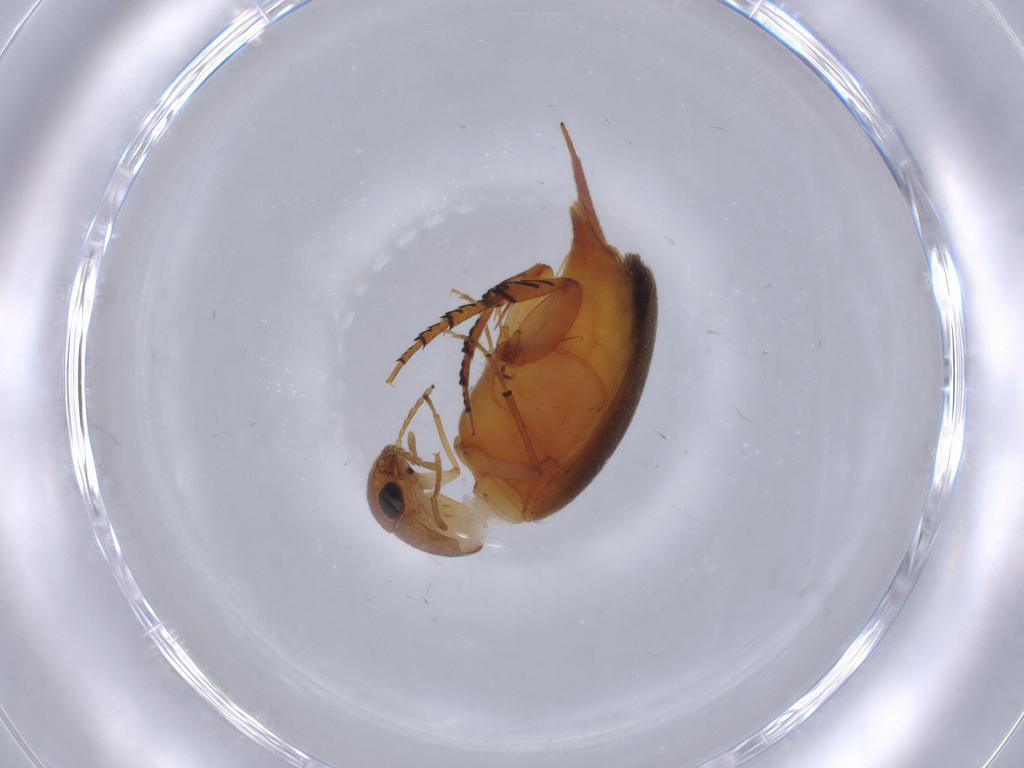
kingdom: Animalia
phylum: Arthropoda
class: Insecta
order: Coleoptera
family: Mordellidae
